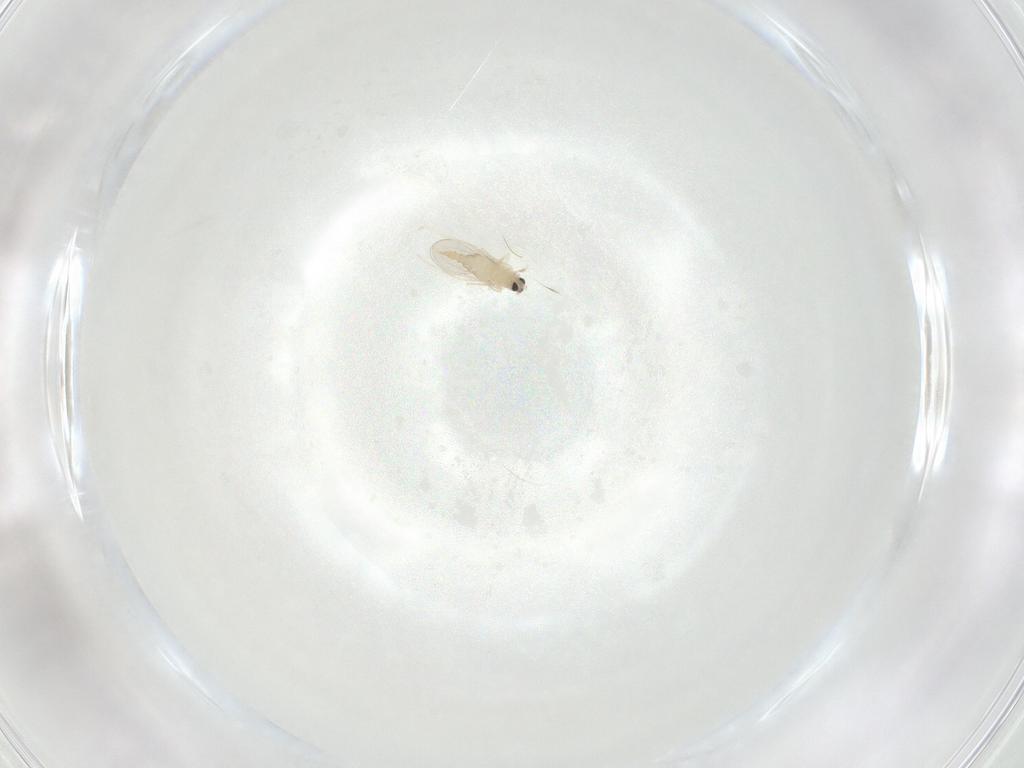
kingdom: Animalia
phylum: Arthropoda
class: Insecta
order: Diptera
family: Cecidomyiidae
